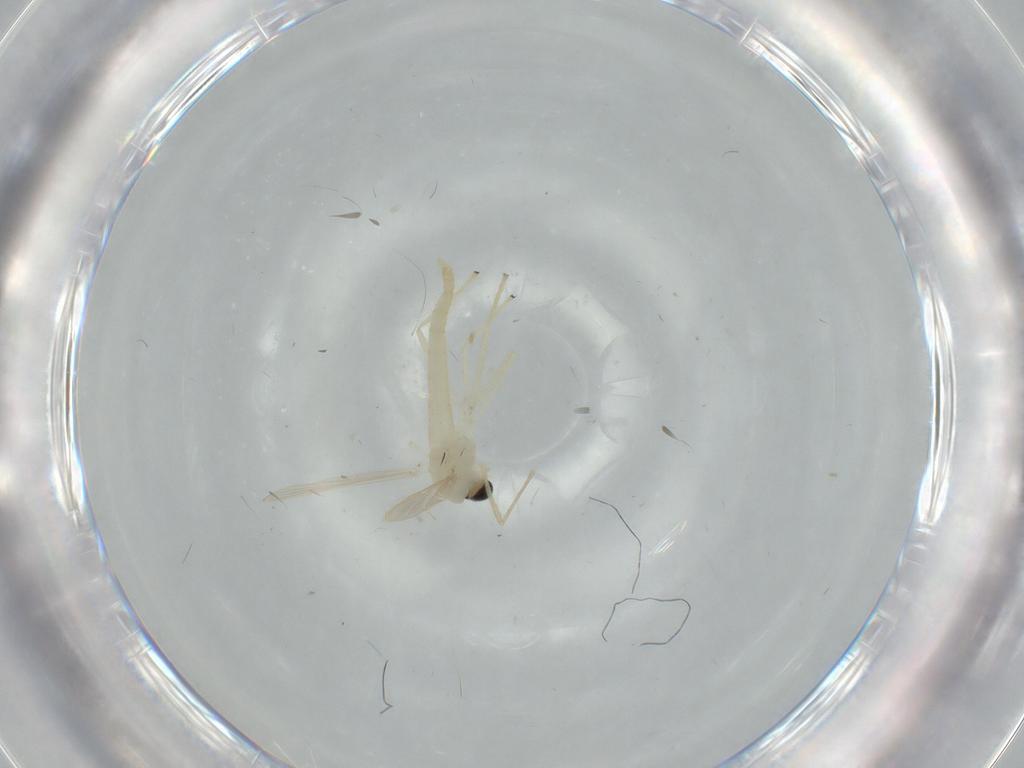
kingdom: Animalia
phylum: Arthropoda
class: Insecta
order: Diptera
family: Chironomidae
